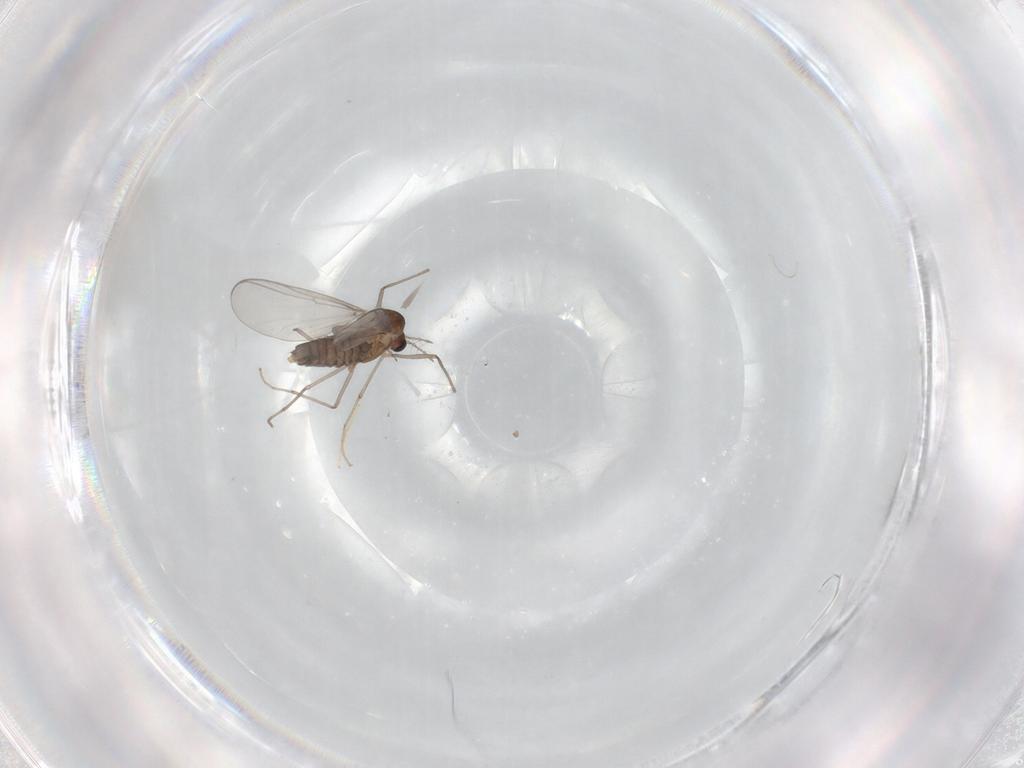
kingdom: Animalia
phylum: Arthropoda
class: Insecta
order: Diptera
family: Chironomidae
